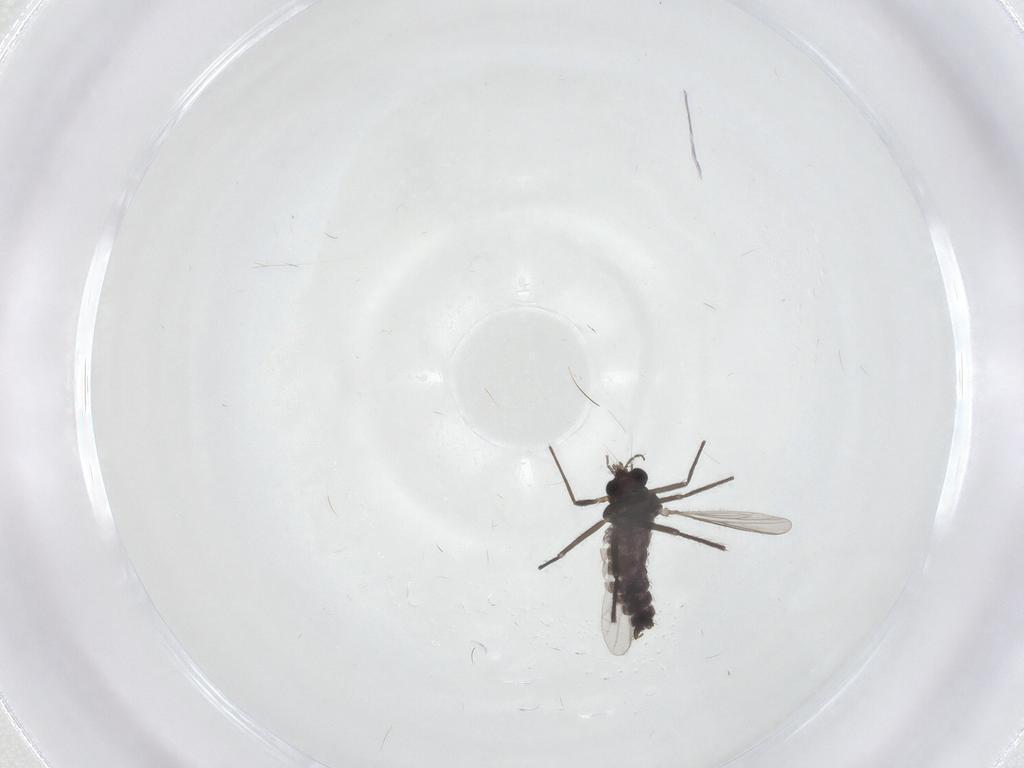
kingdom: Animalia
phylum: Arthropoda
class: Insecta
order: Diptera
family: Chironomidae
